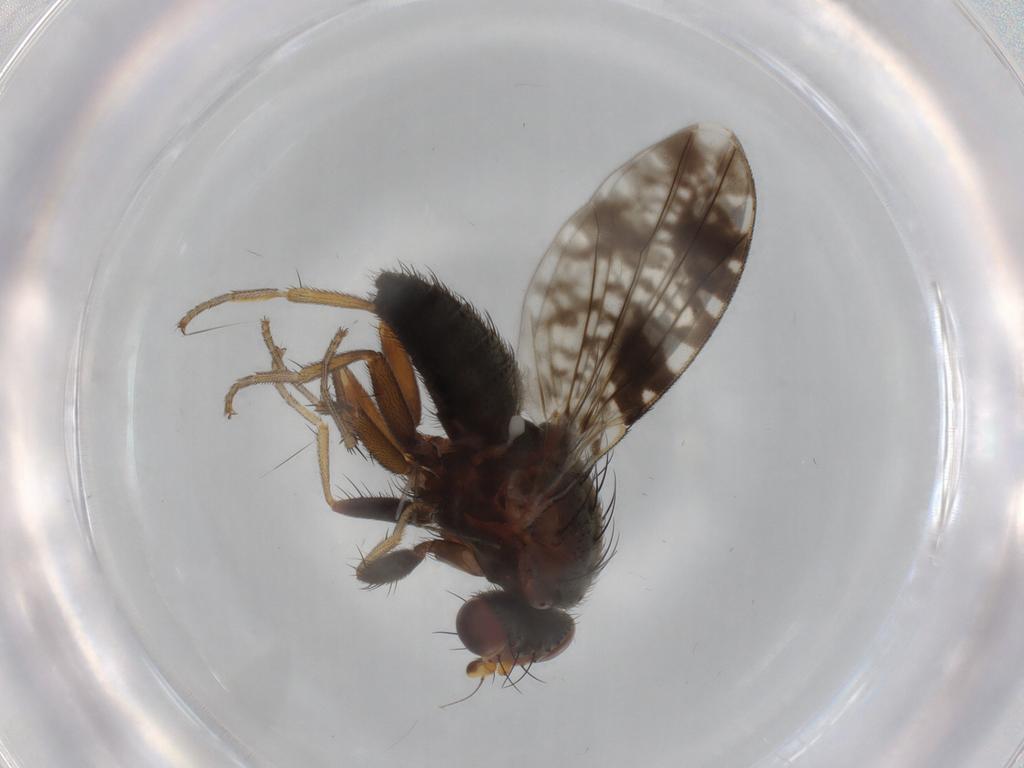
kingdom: Animalia
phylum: Arthropoda
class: Insecta
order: Diptera
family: Tephritidae
